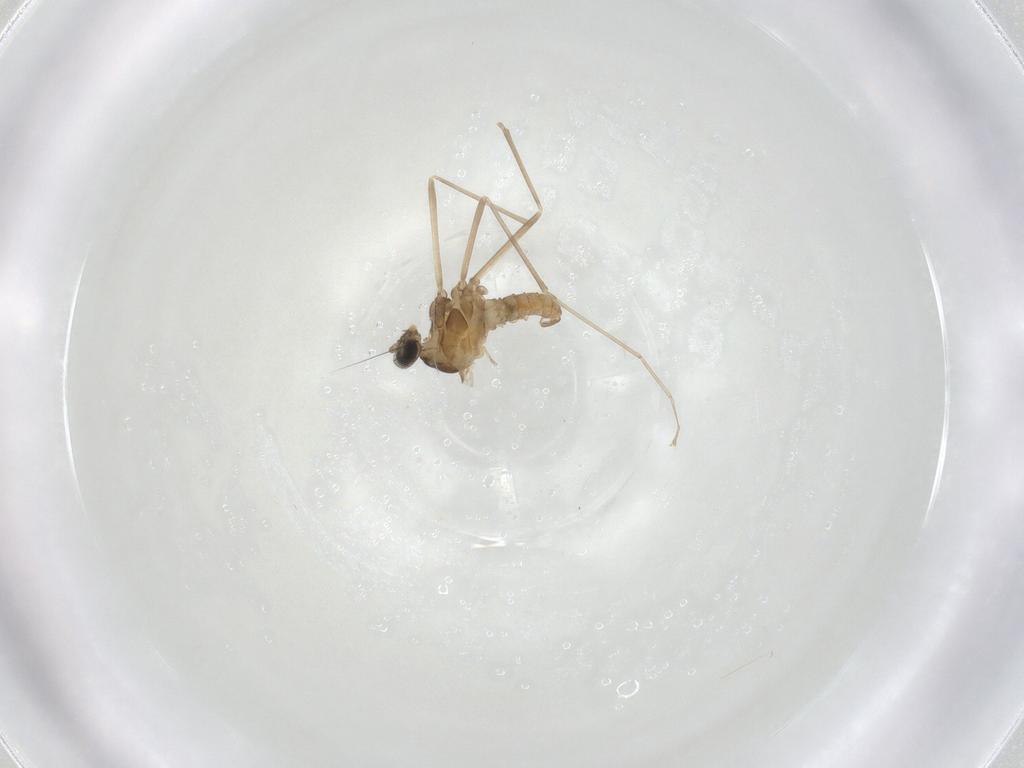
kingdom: Animalia
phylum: Arthropoda
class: Insecta
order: Diptera
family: Cecidomyiidae
